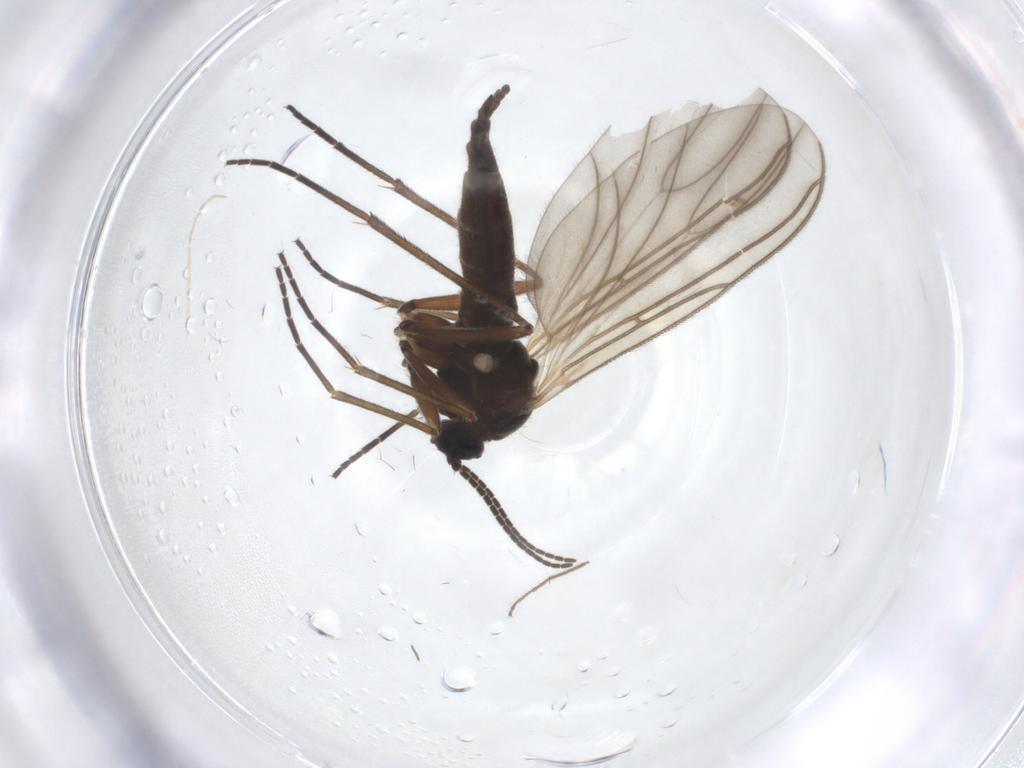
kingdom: Animalia
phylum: Arthropoda
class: Insecta
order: Diptera
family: Sciaridae
